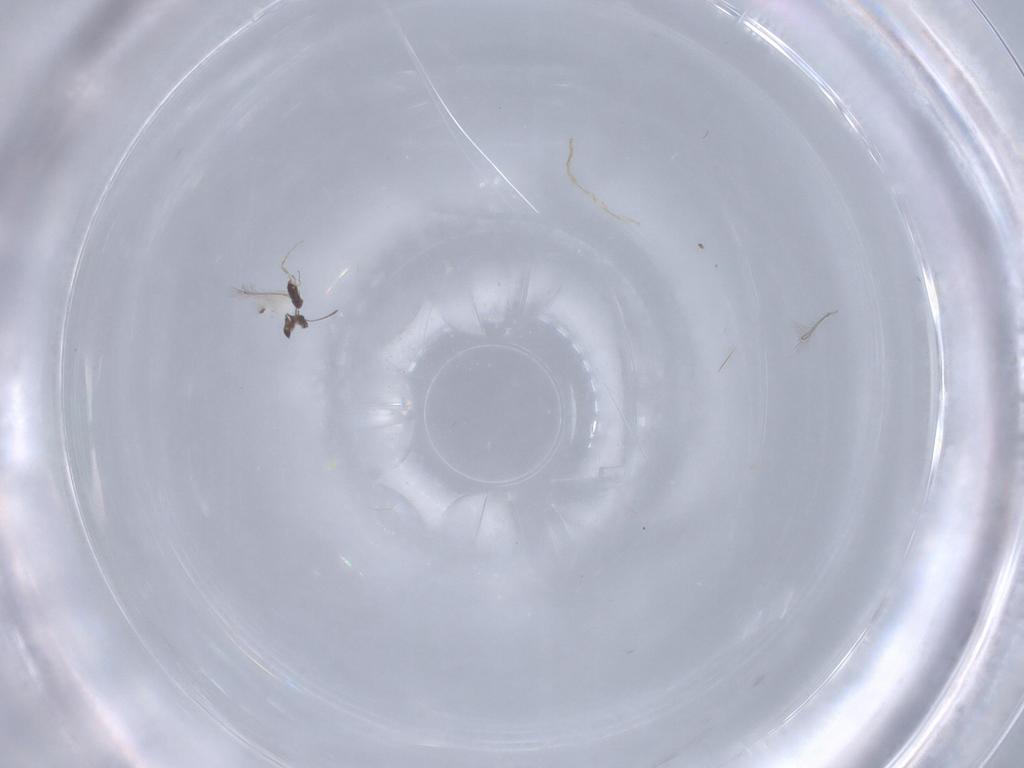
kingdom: Animalia
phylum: Arthropoda
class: Insecta
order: Hymenoptera
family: Mymaridae
